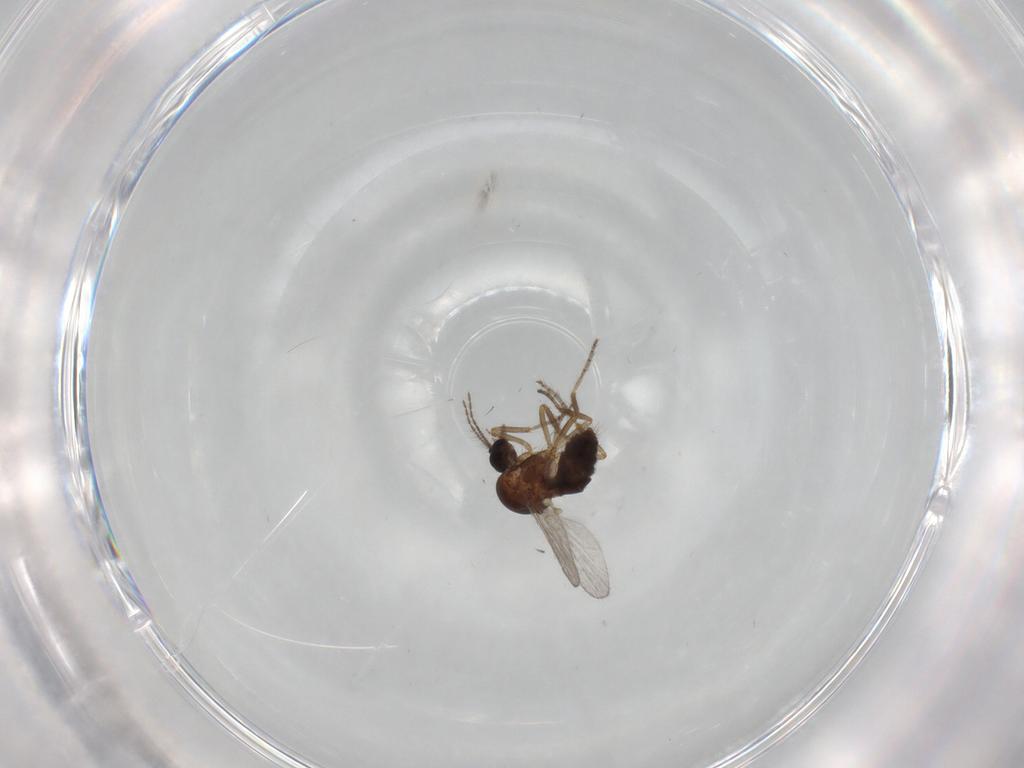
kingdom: Animalia
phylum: Arthropoda
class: Insecta
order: Diptera
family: Ceratopogonidae
